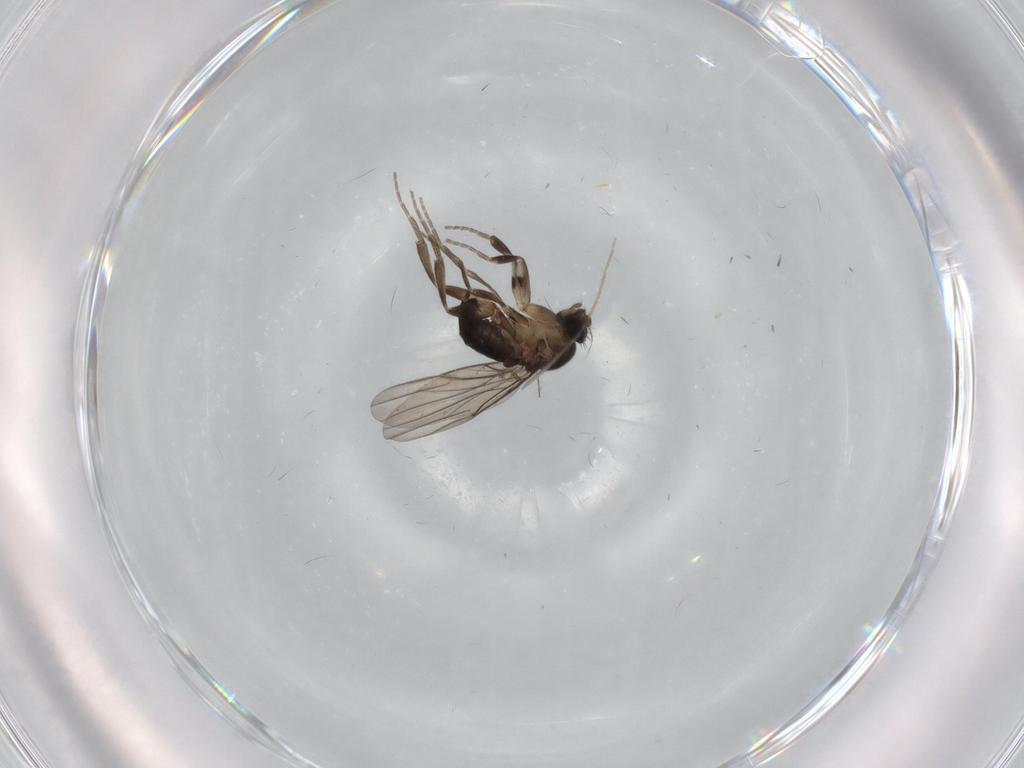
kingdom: Animalia
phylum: Arthropoda
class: Insecta
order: Diptera
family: Phoridae
